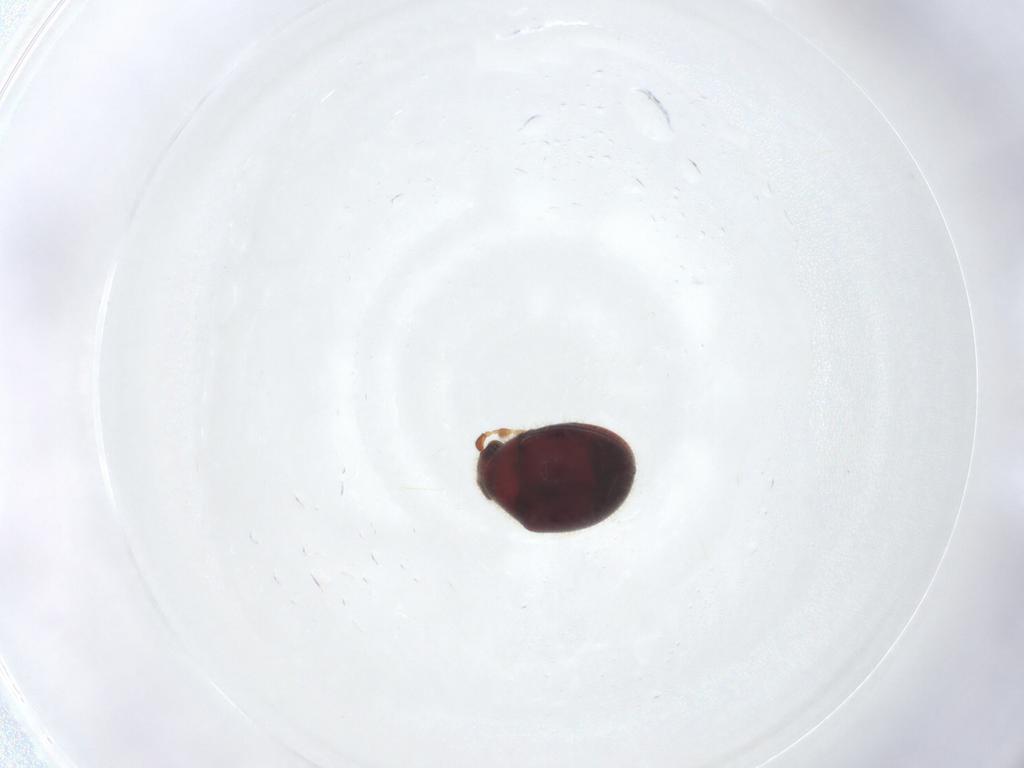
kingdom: Animalia
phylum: Arthropoda
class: Insecta
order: Coleoptera
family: Ptinidae
